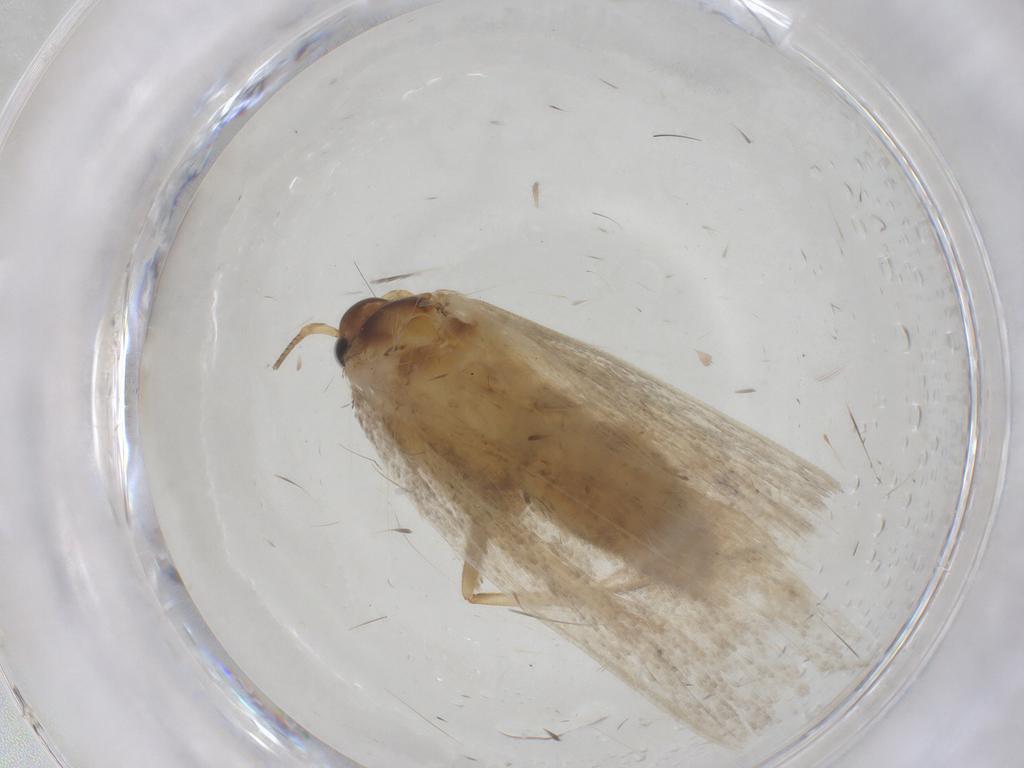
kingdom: Animalia
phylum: Arthropoda
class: Insecta
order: Lepidoptera
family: Depressariidae
